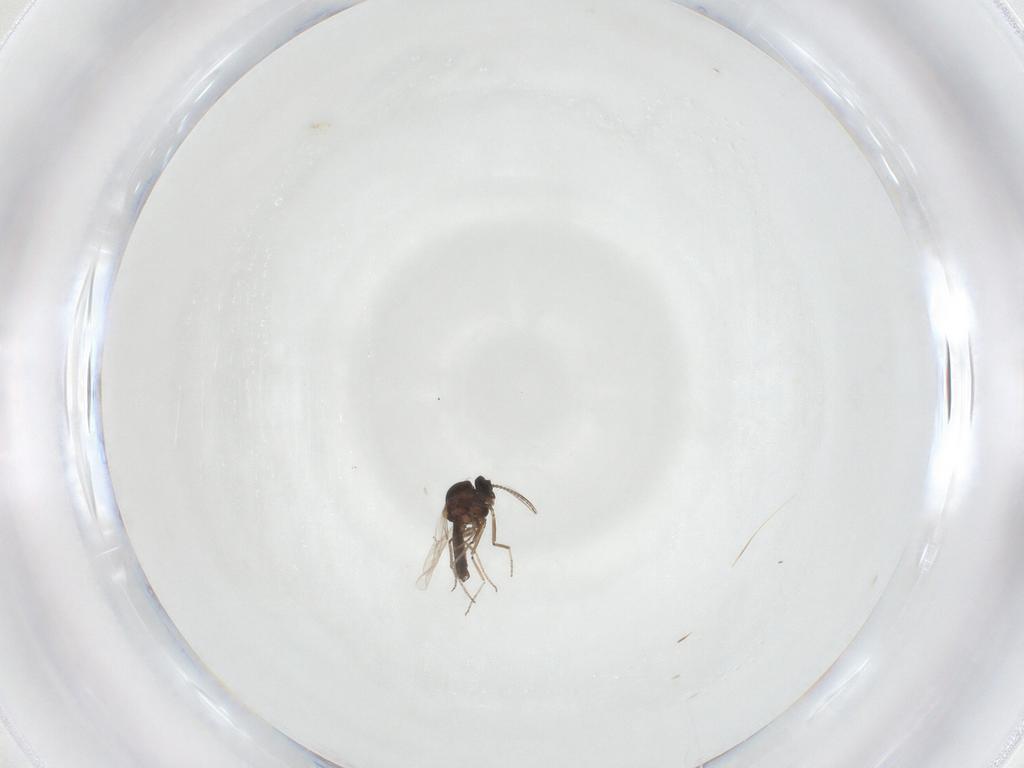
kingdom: Animalia
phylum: Arthropoda
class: Insecta
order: Diptera
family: Ceratopogonidae
